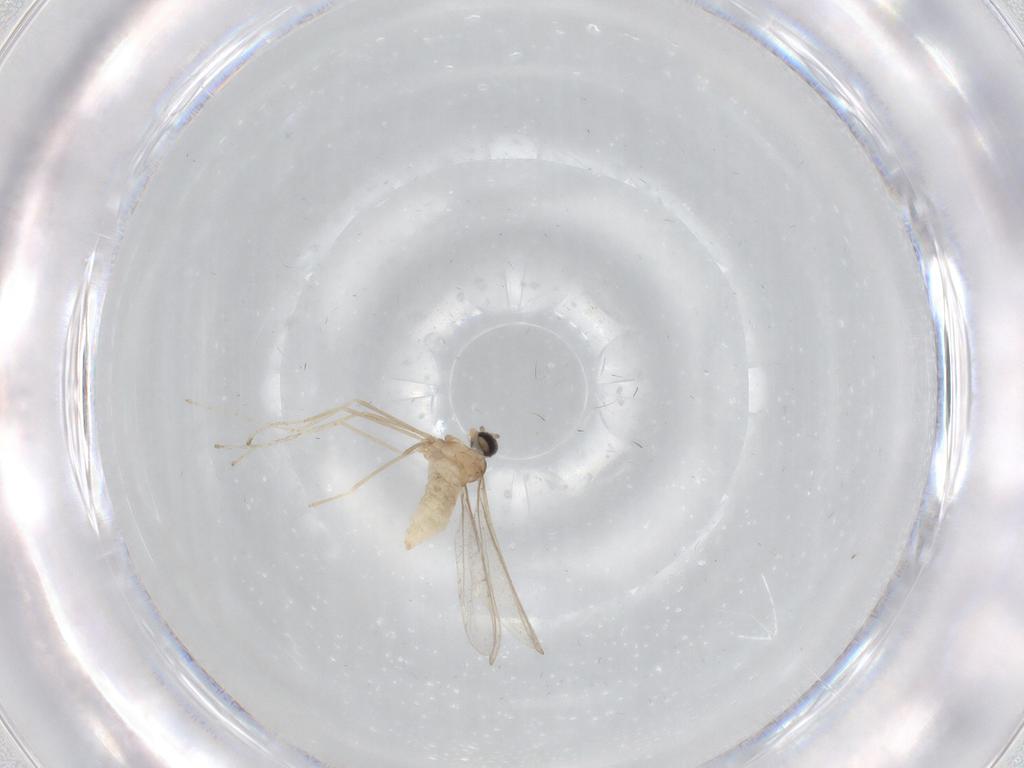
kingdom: Animalia
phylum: Arthropoda
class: Insecta
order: Diptera
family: Cecidomyiidae
